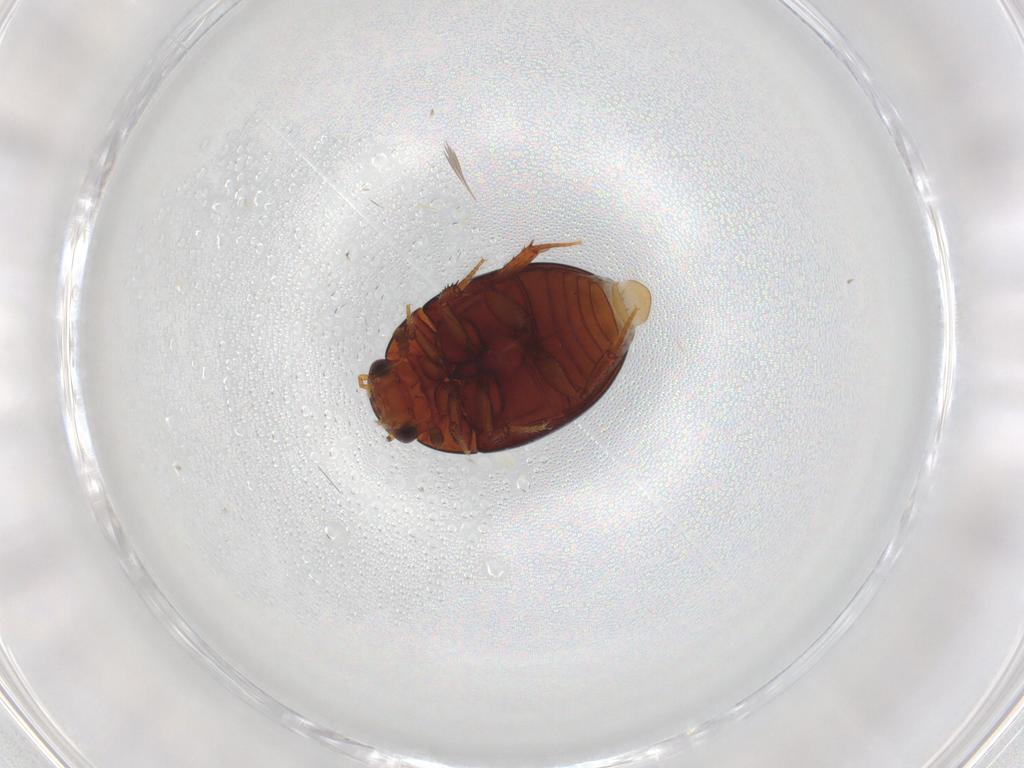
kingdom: Animalia
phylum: Arthropoda
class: Insecta
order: Coleoptera
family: Hydrophilidae
